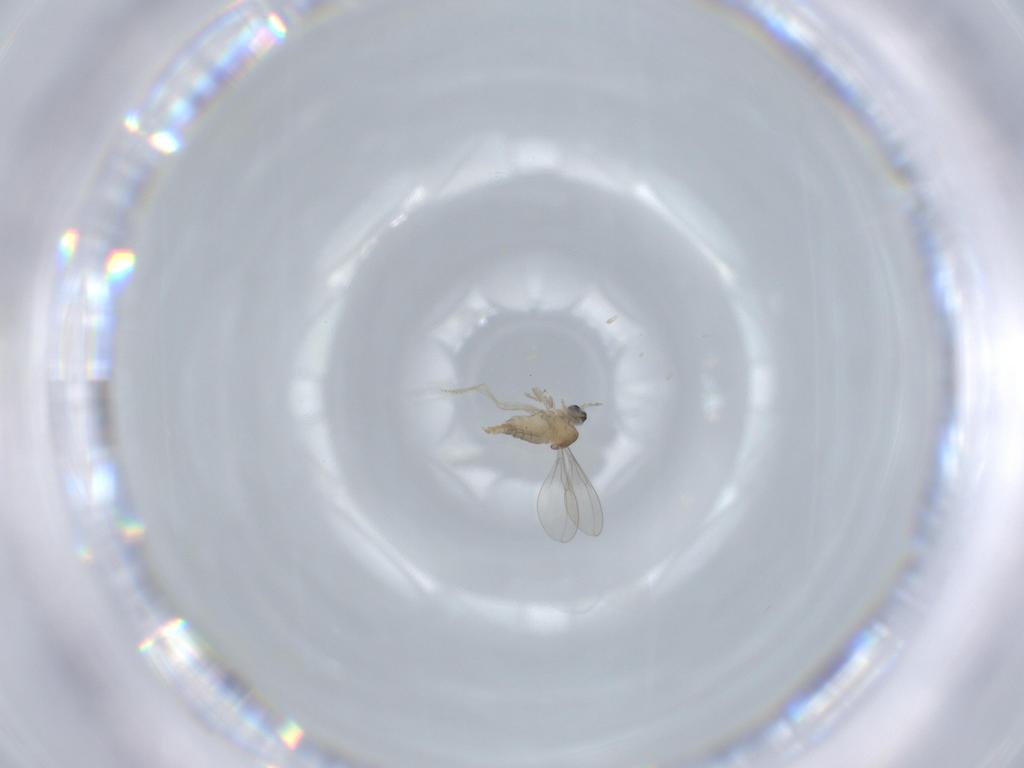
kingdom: Animalia
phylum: Arthropoda
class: Insecta
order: Diptera
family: Cecidomyiidae
